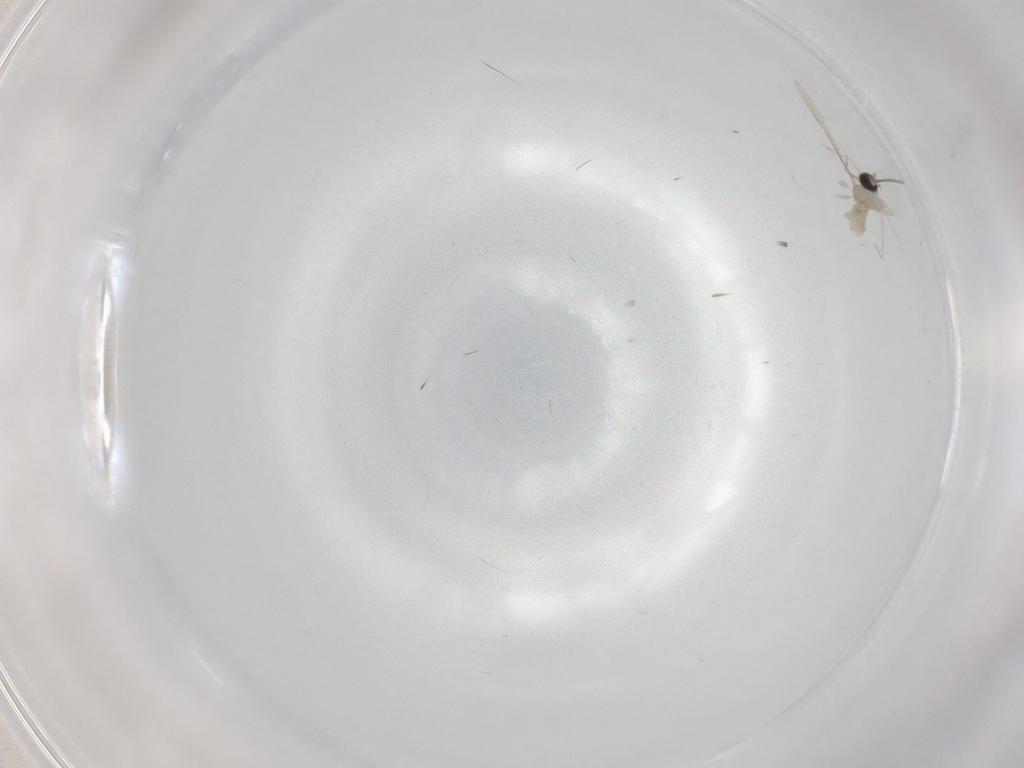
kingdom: Animalia
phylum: Arthropoda
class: Insecta
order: Diptera
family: Cecidomyiidae
